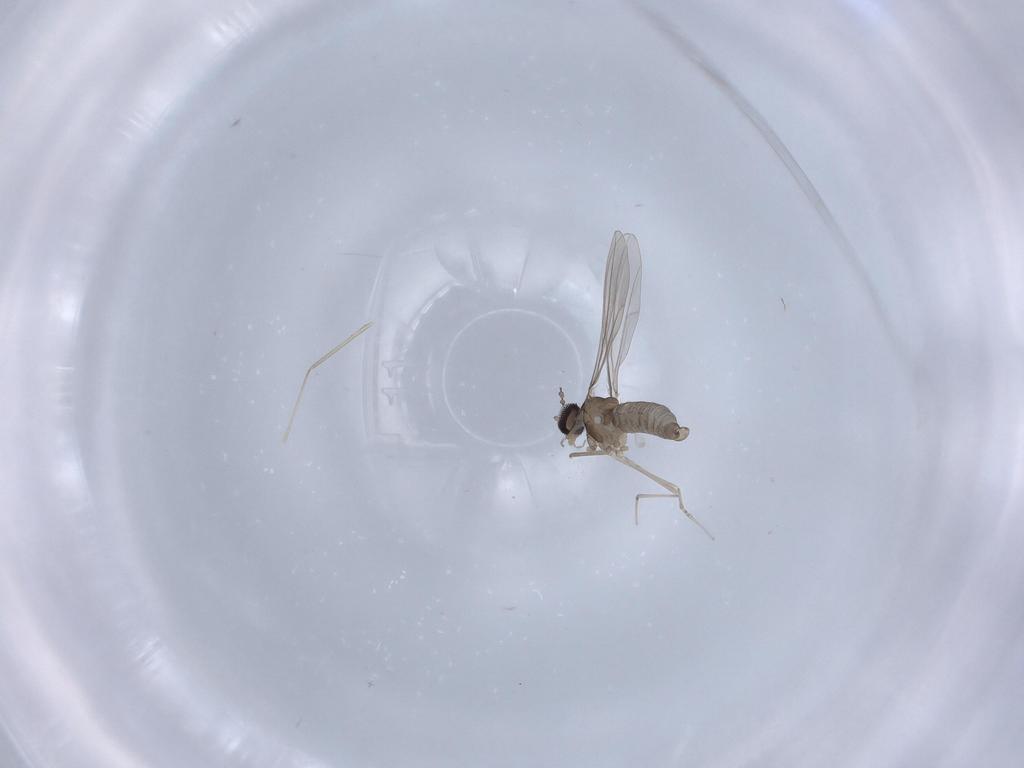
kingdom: Animalia
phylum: Arthropoda
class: Insecta
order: Diptera
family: Cecidomyiidae
